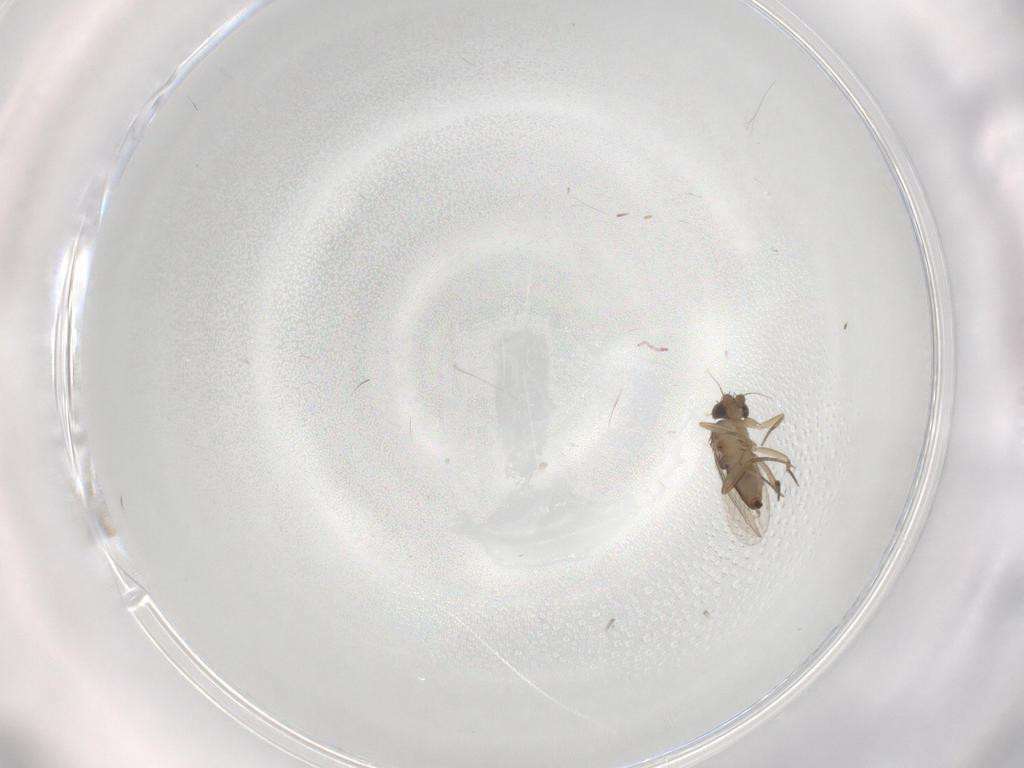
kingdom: Animalia
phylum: Arthropoda
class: Insecta
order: Diptera
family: Phoridae
